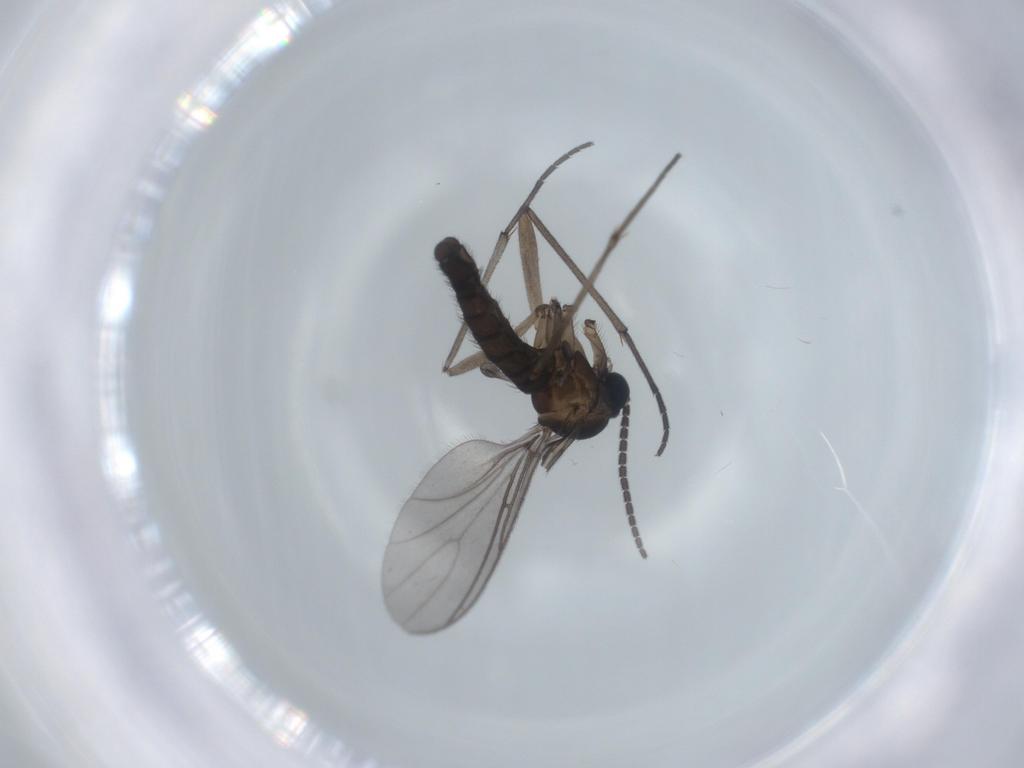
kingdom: Animalia
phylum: Arthropoda
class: Insecta
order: Diptera
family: Sciaridae
